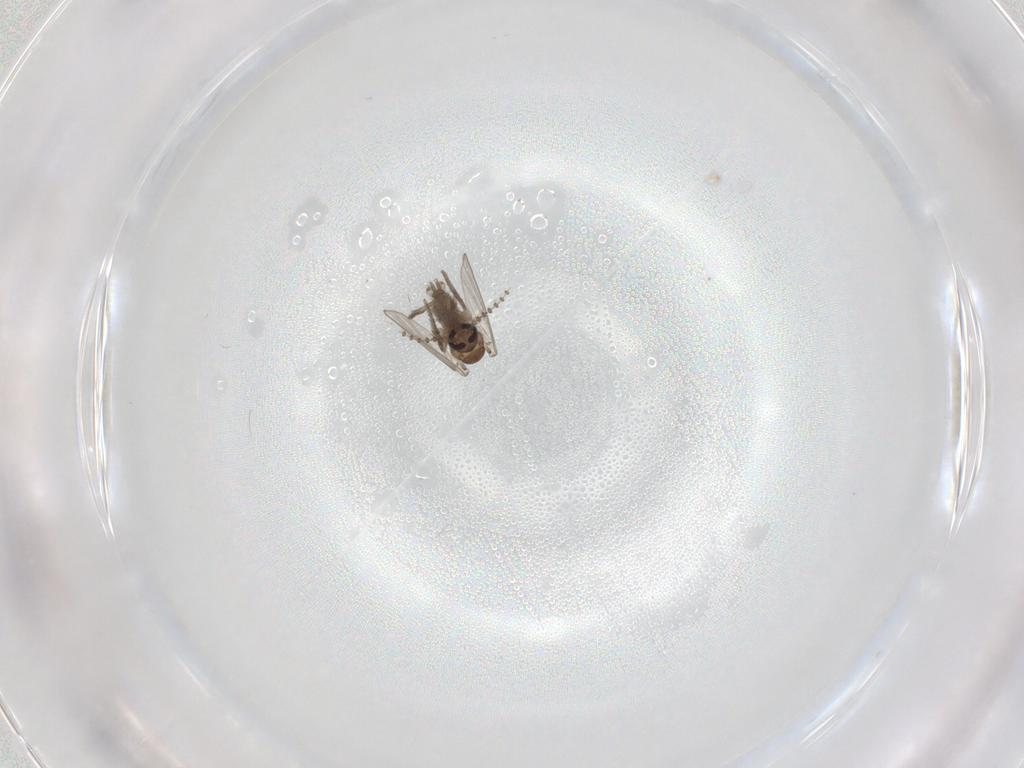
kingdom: Animalia
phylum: Arthropoda
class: Insecta
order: Diptera
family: Psychodidae
